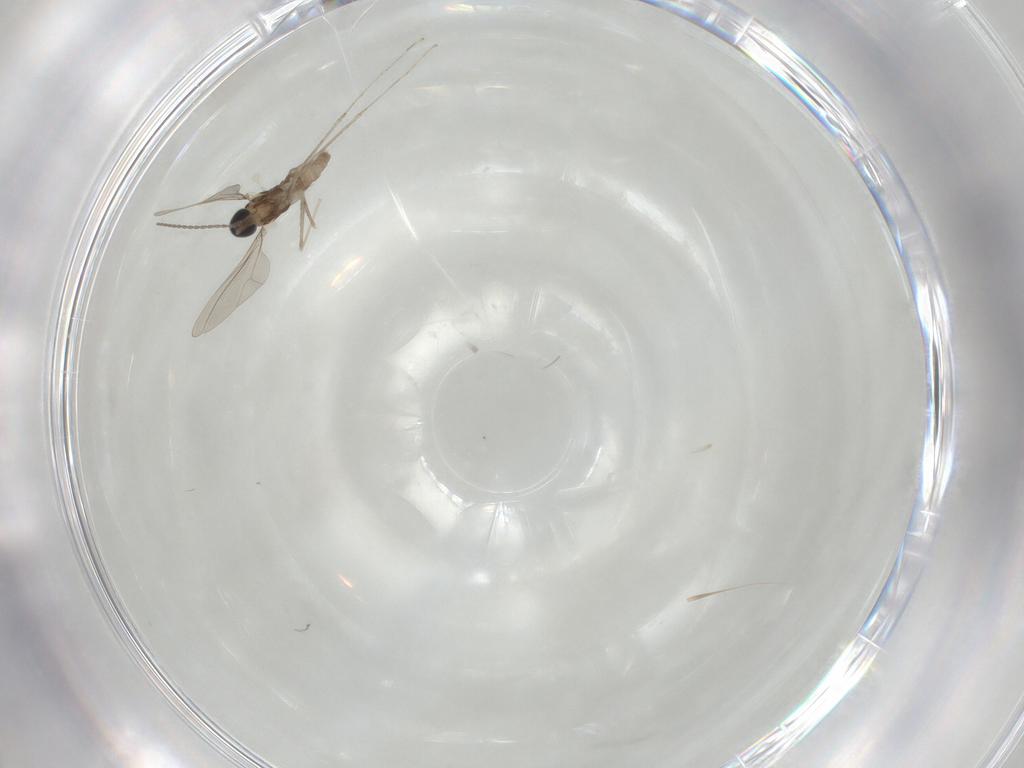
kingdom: Animalia
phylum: Arthropoda
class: Insecta
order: Diptera
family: Cecidomyiidae
